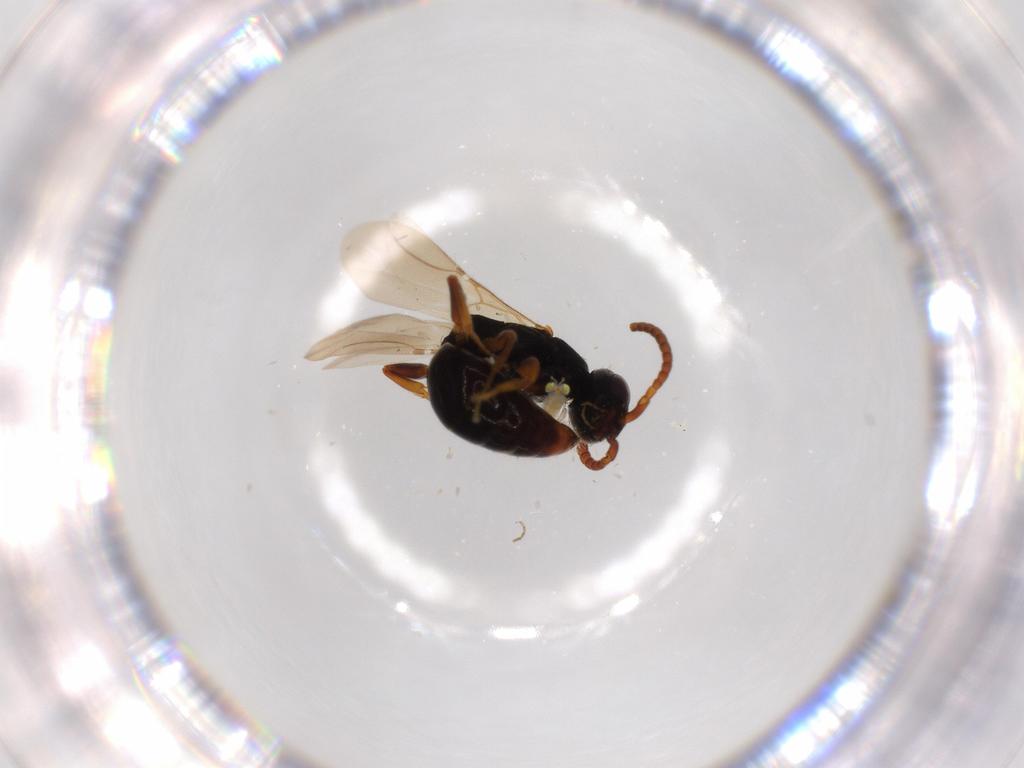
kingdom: Animalia
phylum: Arthropoda
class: Insecta
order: Hymenoptera
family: Bethylidae
